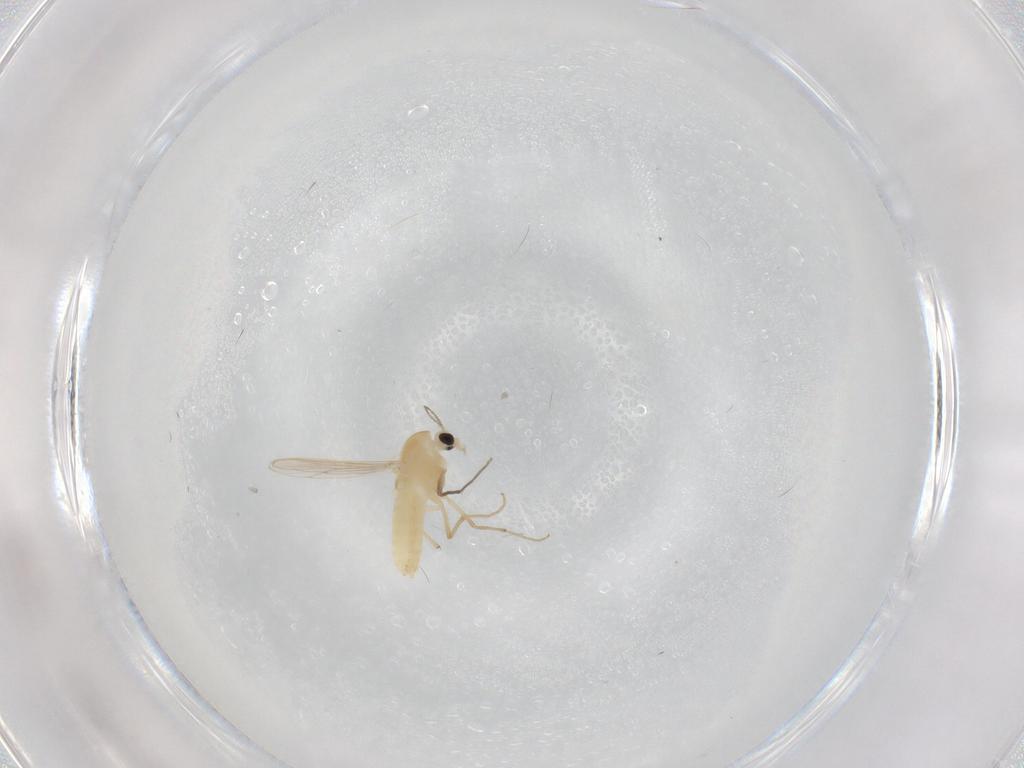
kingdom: Animalia
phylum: Arthropoda
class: Insecta
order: Diptera
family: Chironomidae
